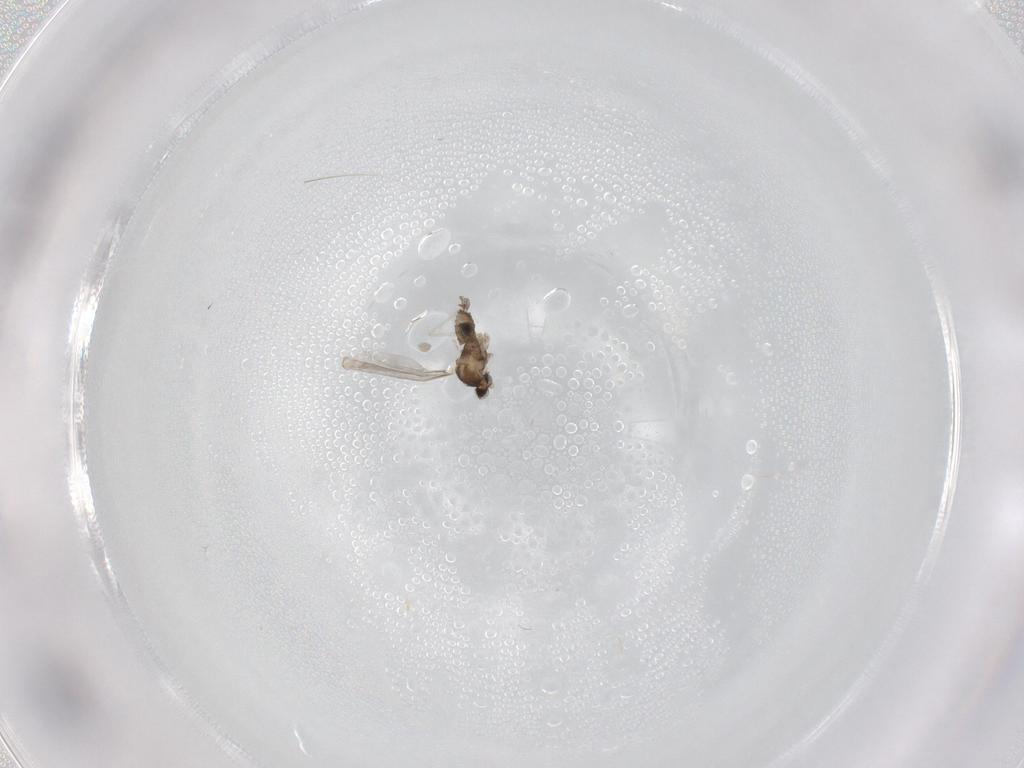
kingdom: Animalia
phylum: Arthropoda
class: Insecta
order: Diptera
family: Cecidomyiidae
